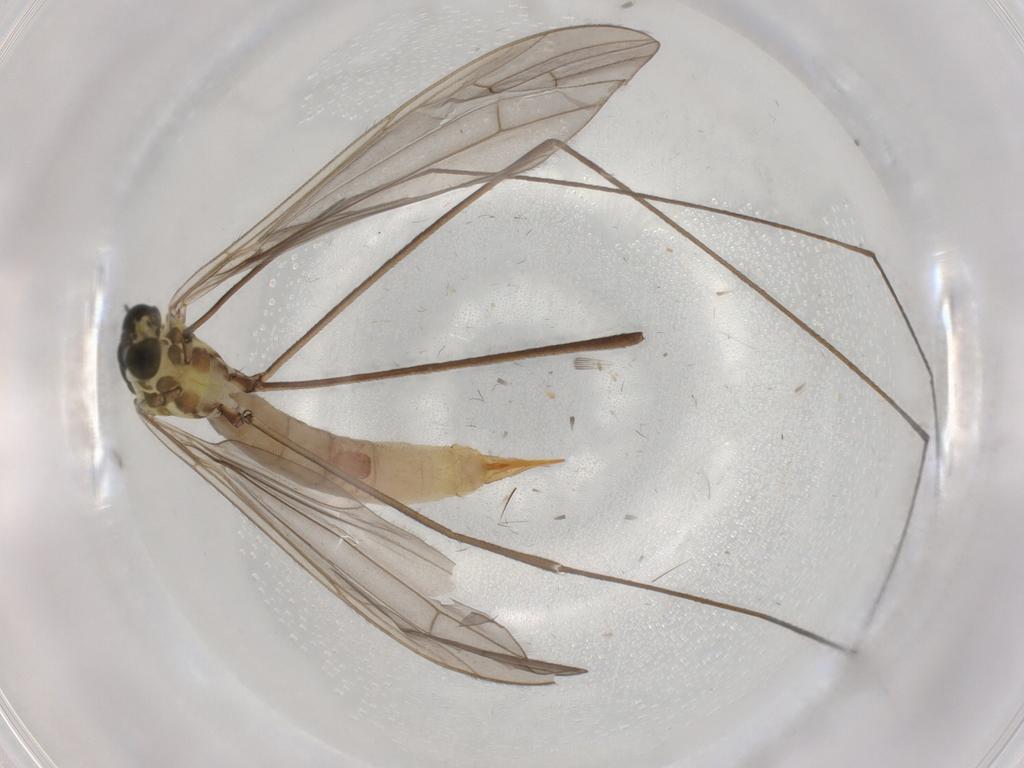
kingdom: Animalia
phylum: Arthropoda
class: Insecta
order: Diptera
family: Limoniidae
